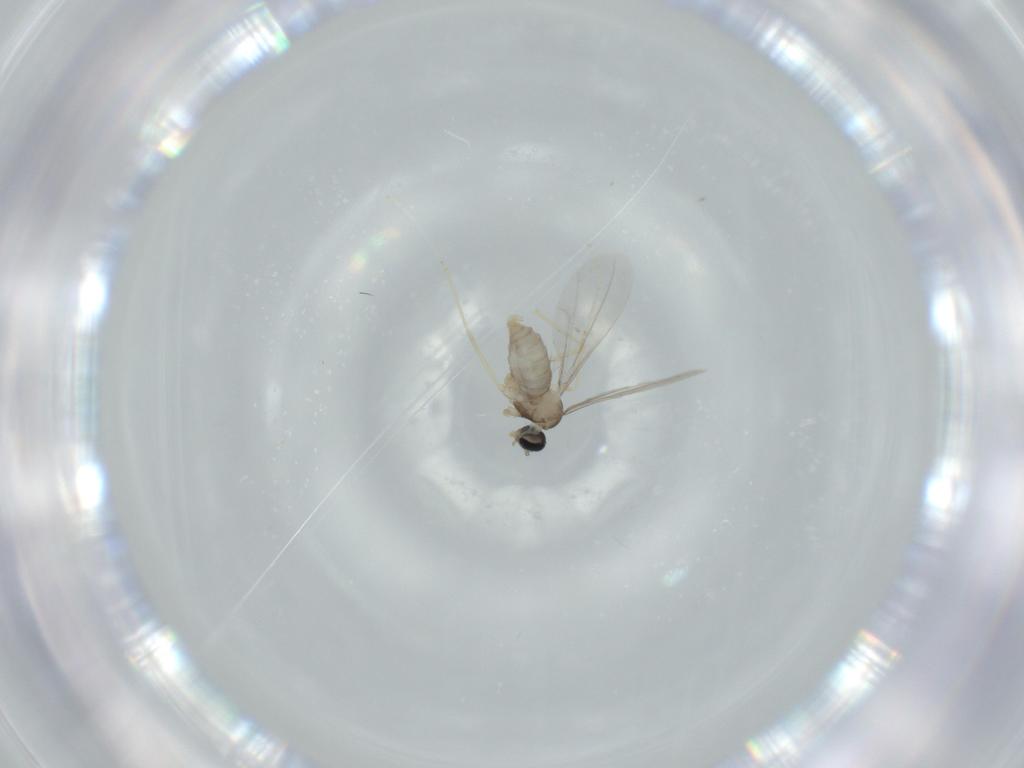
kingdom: Animalia
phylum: Arthropoda
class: Insecta
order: Diptera
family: Cecidomyiidae
